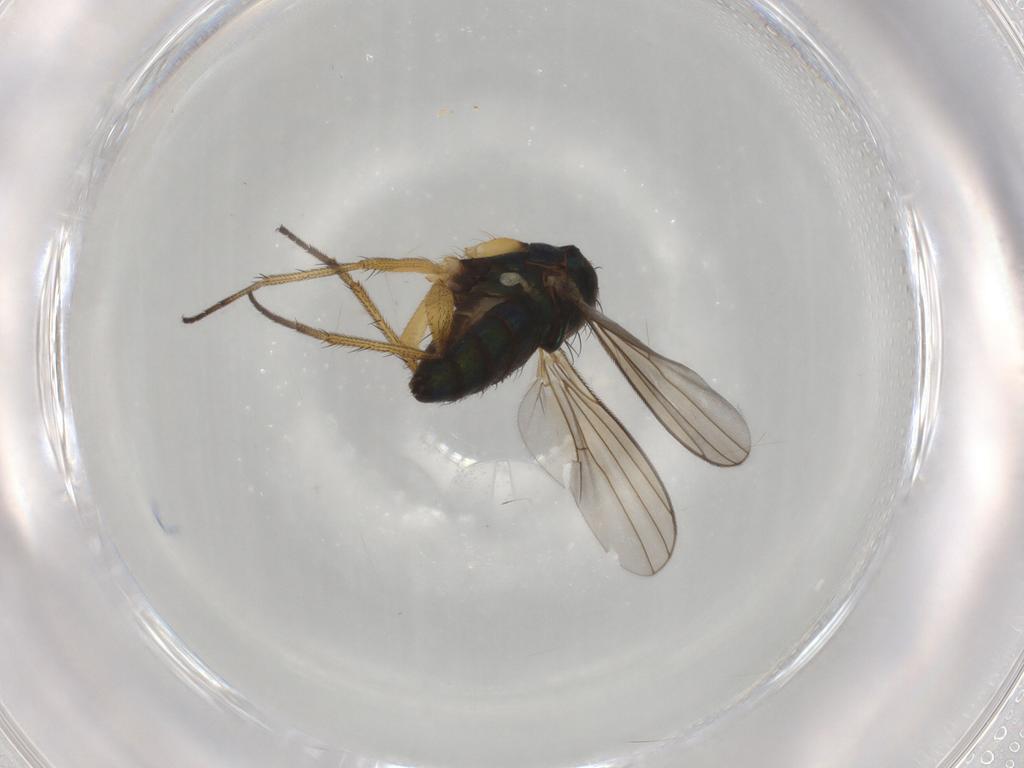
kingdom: Animalia
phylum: Arthropoda
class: Insecta
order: Diptera
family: Dolichopodidae
